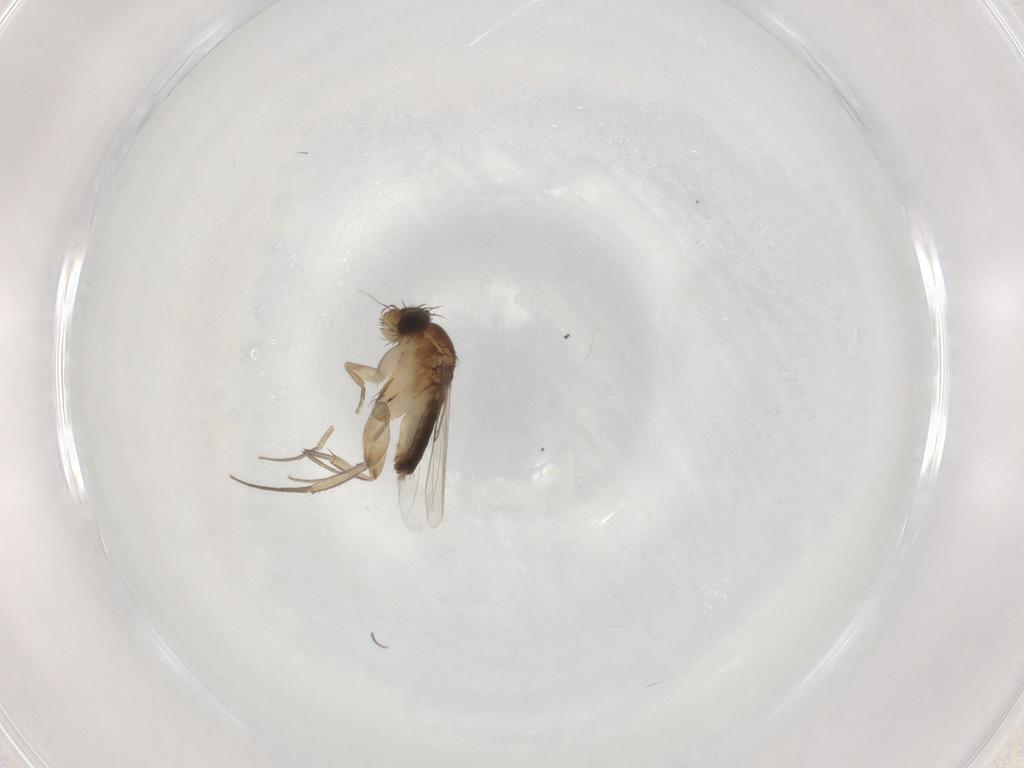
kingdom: Animalia
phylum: Arthropoda
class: Insecta
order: Diptera
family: Phoridae
